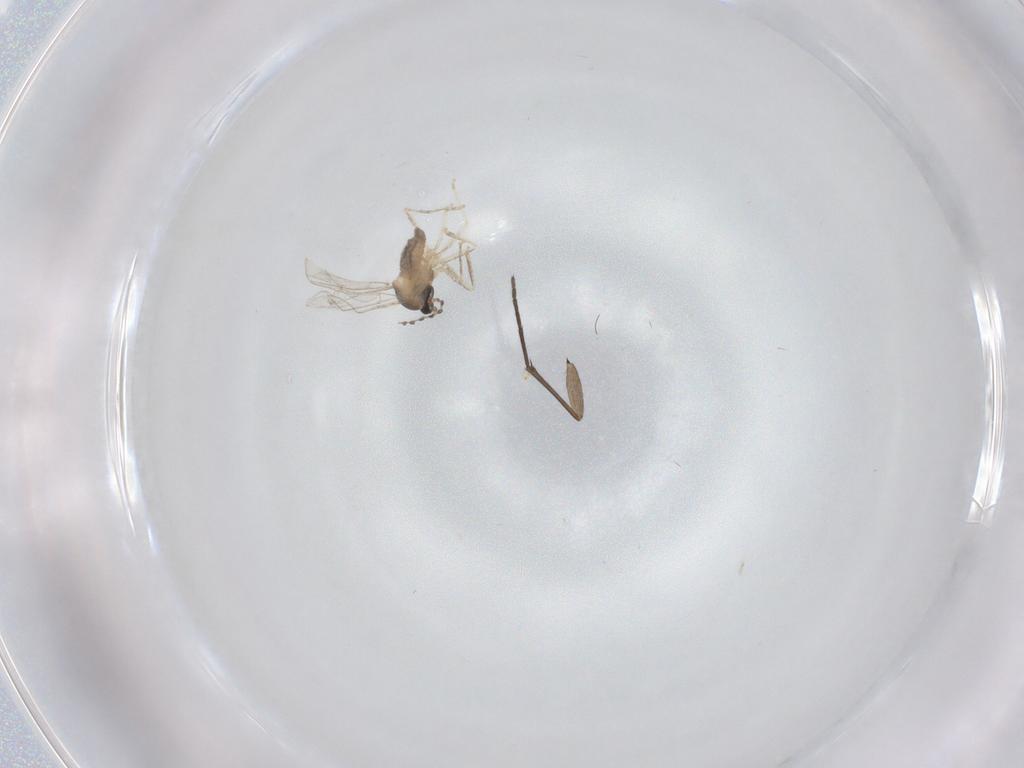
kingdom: Animalia
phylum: Arthropoda
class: Insecta
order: Diptera
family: Cecidomyiidae
